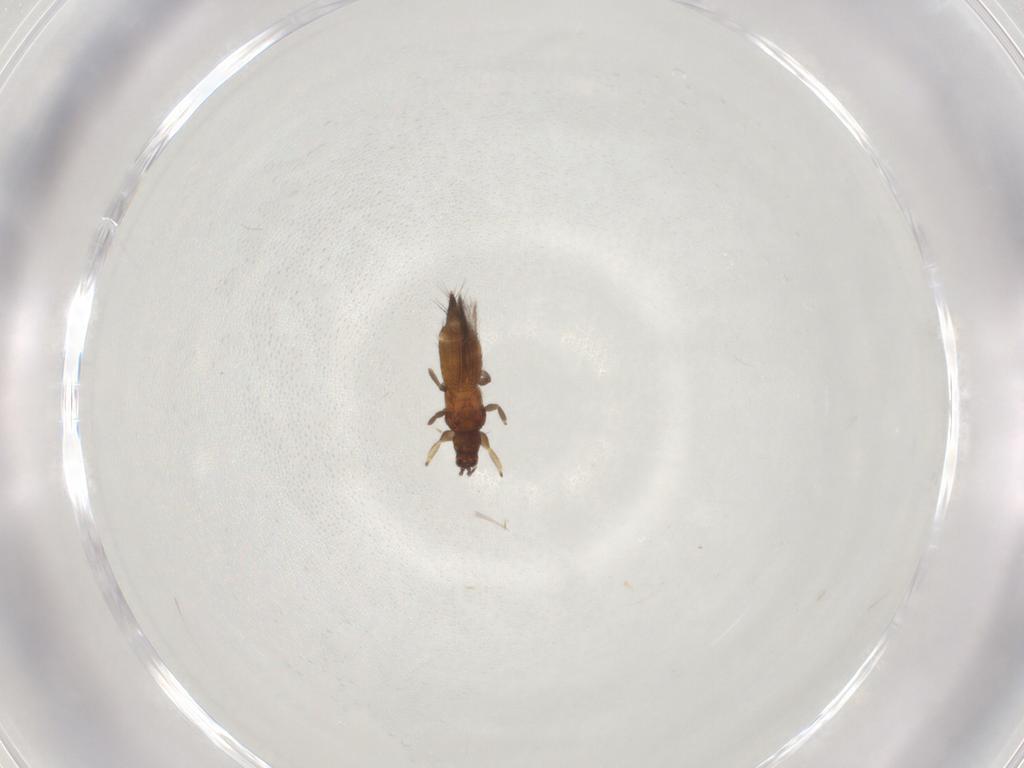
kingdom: Animalia
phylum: Arthropoda
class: Insecta
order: Thysanoptera
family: Thripidae
